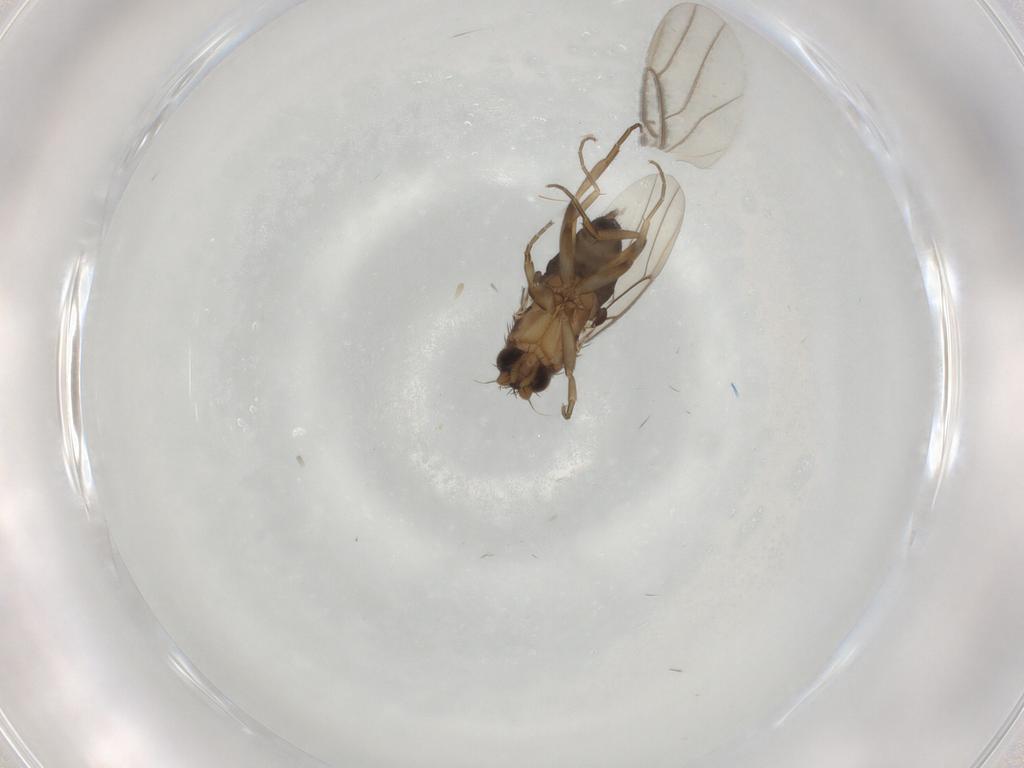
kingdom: Animalia
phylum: Arthropoda
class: Insecta
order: Diptera
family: Phoridae
